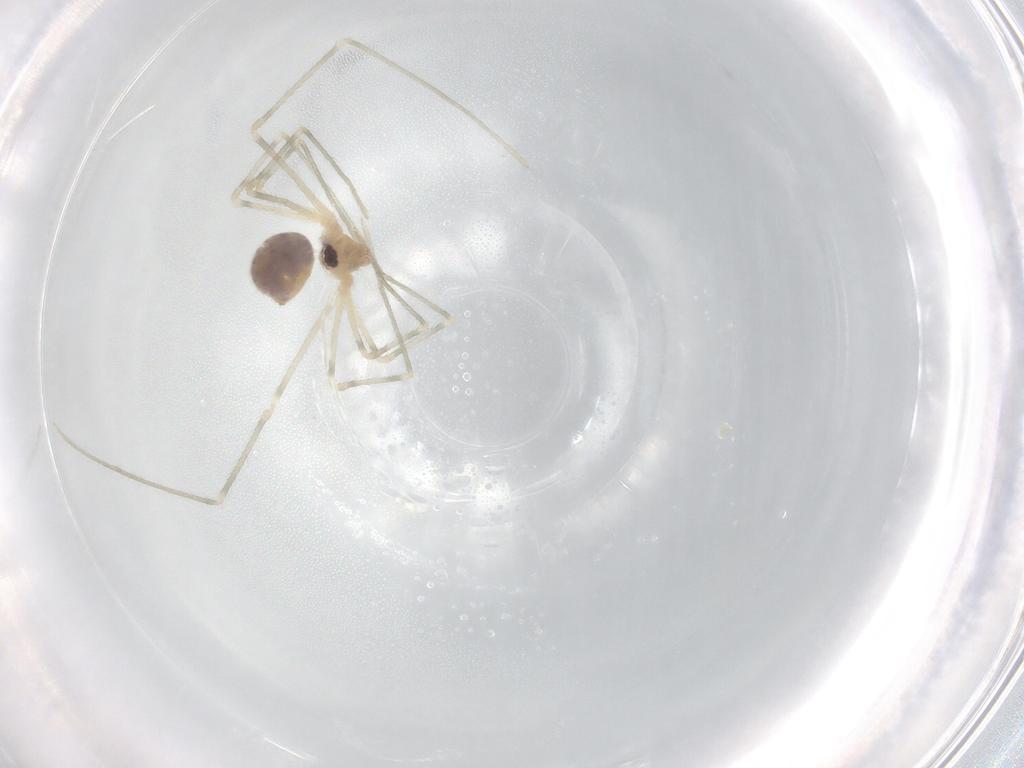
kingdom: Animalia
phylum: Arthropoda
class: Arachnida
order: Araneae
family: Pholcidae
